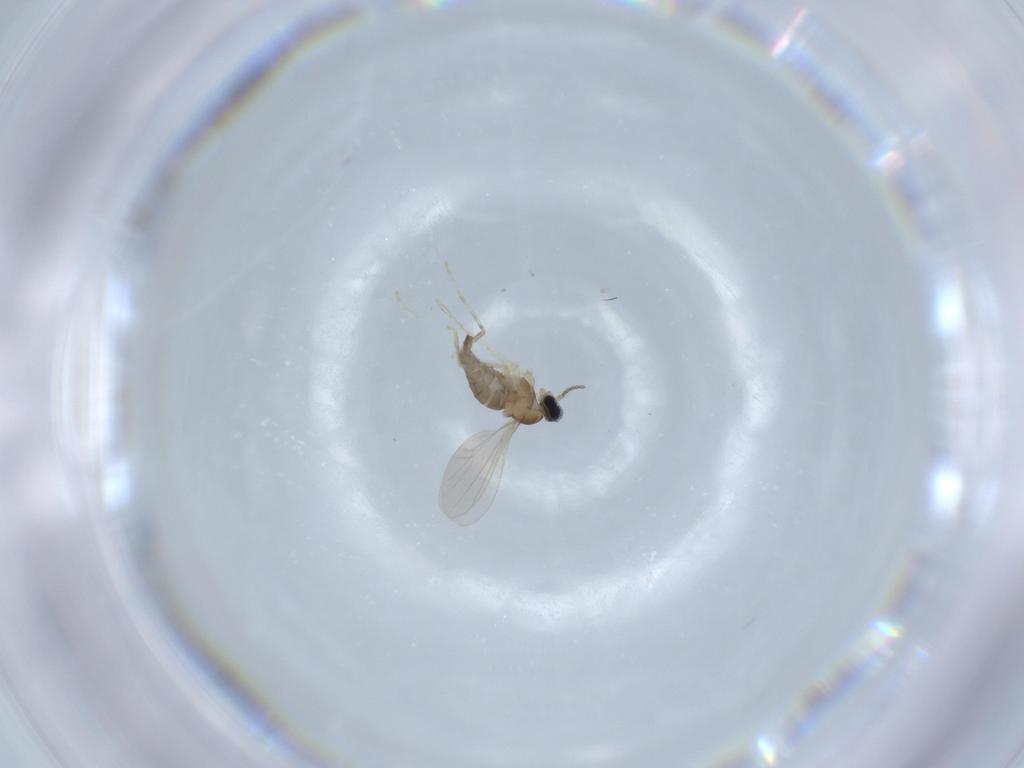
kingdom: Animalia
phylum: Arthropoda
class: Insecta
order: Diptera
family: Cecidomyiidae
